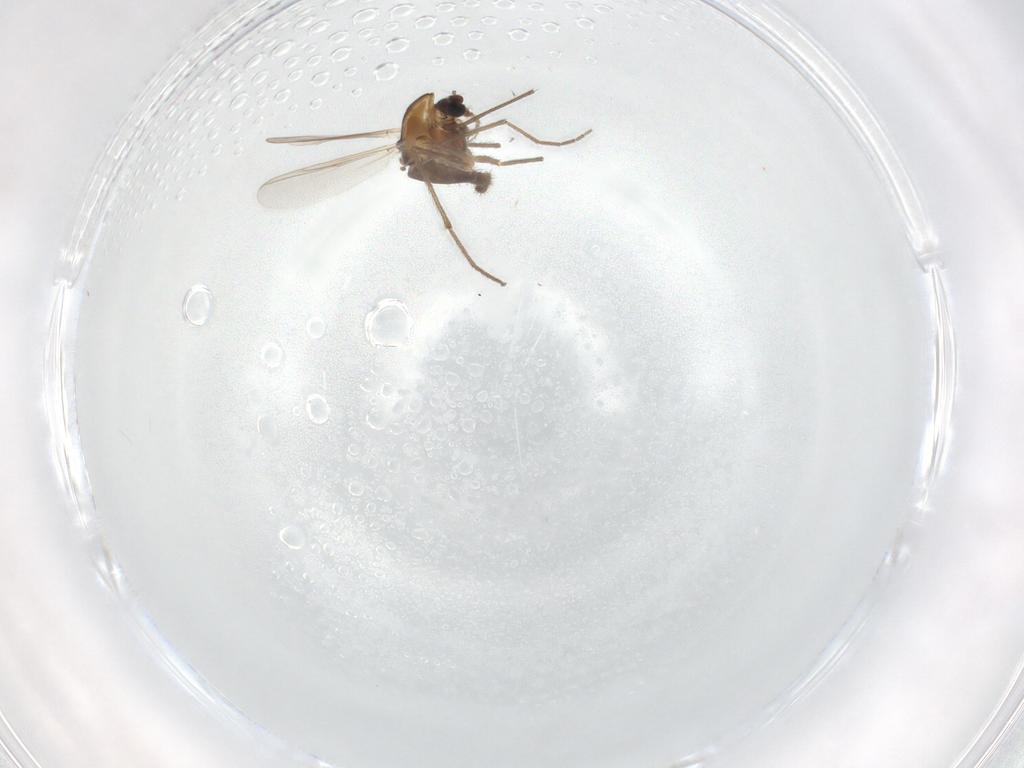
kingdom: Animalia
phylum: Arthropoda
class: Insecta
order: Diptera
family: Chironomidae
